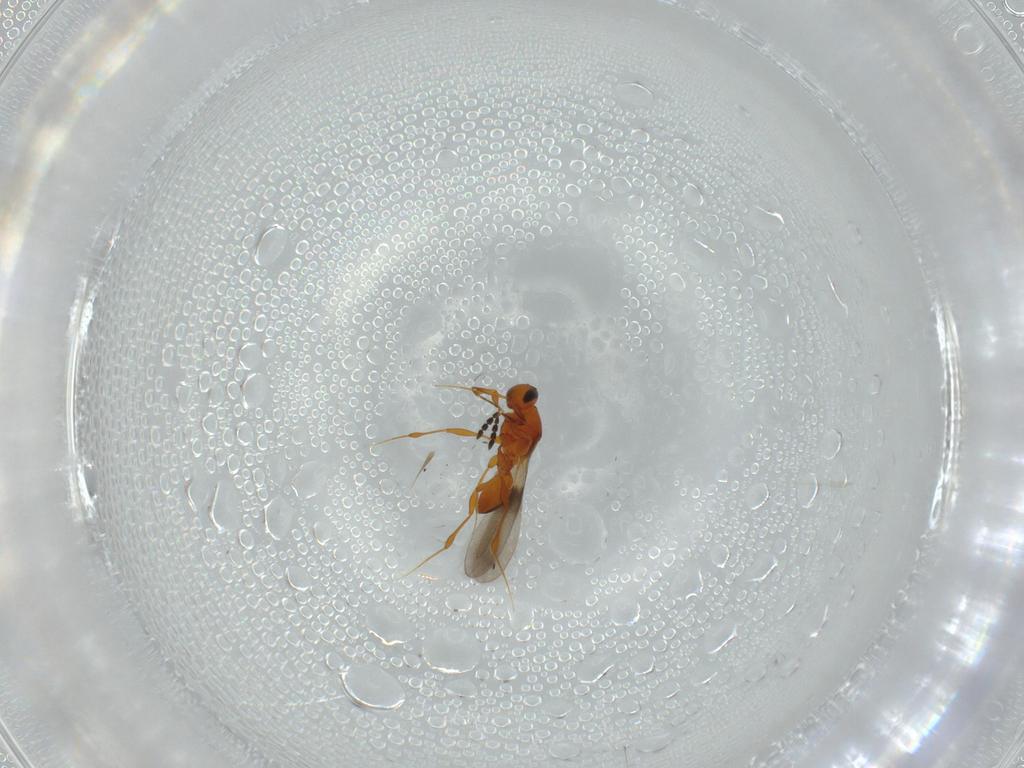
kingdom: Animalia
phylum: Arthropoda
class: Insecta
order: Hymenoptera
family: Platygastridae
